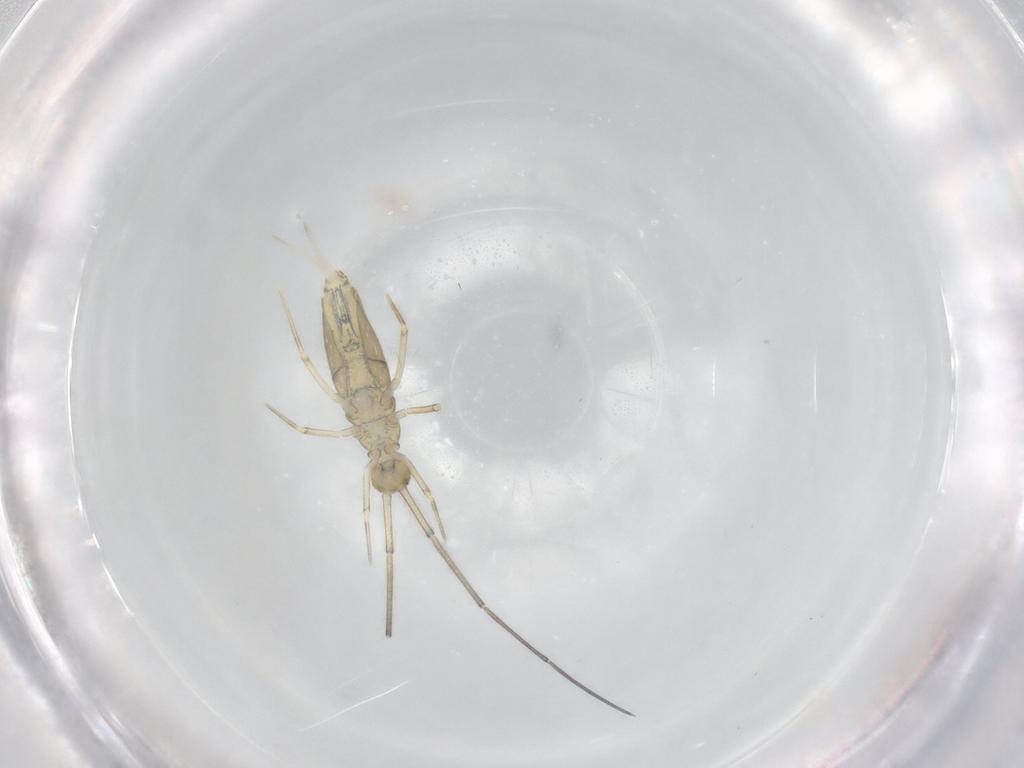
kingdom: Animalia
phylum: Arthropoda
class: Collembola
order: Entomobryomorpha
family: Paronellidae
